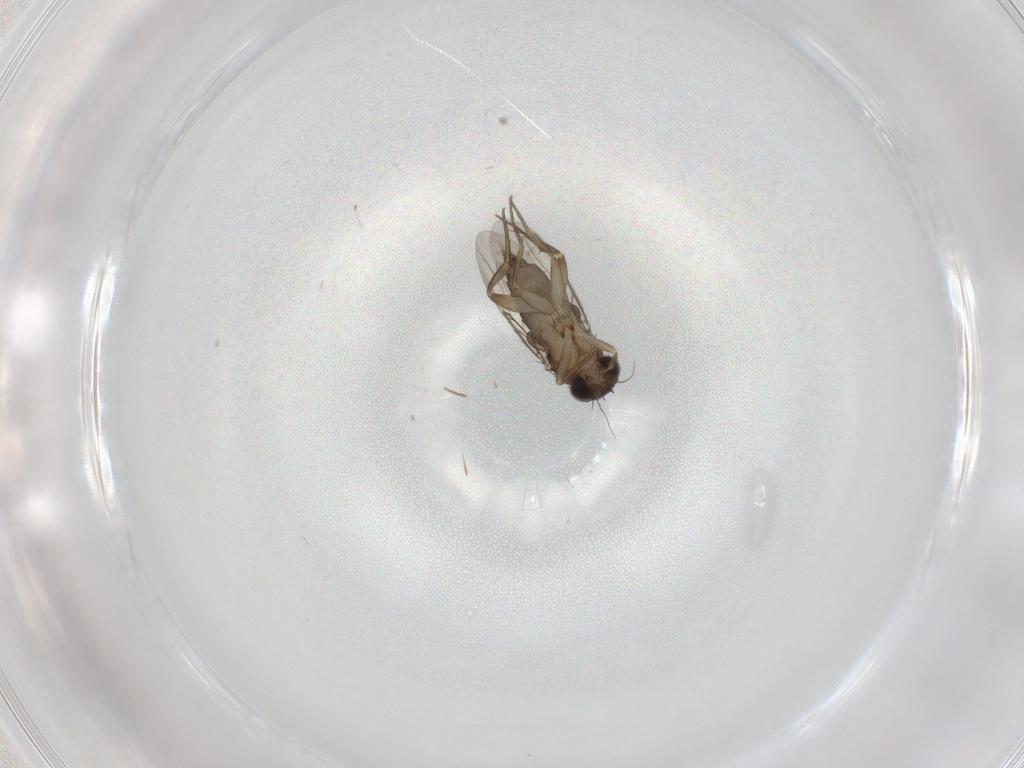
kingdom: Animalia
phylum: Arthropoda
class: Insecta
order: Diptera
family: Phoridae
